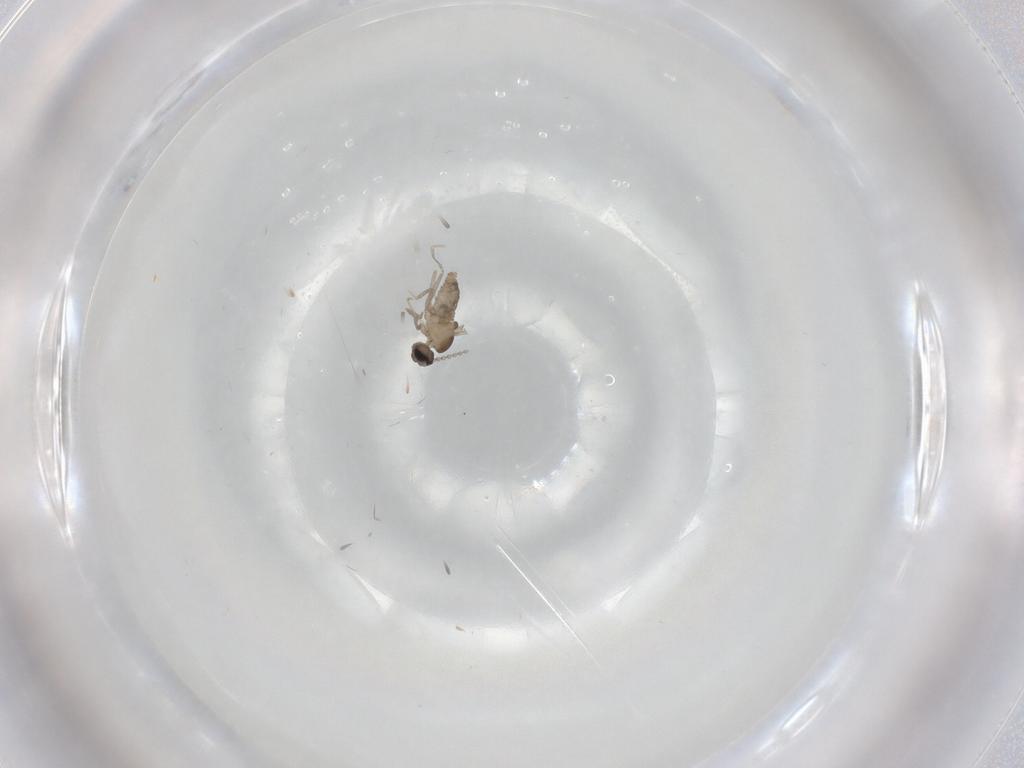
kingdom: Animalia
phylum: Arthropoda
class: Insecta
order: Diptera
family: Cecidomyiidae
